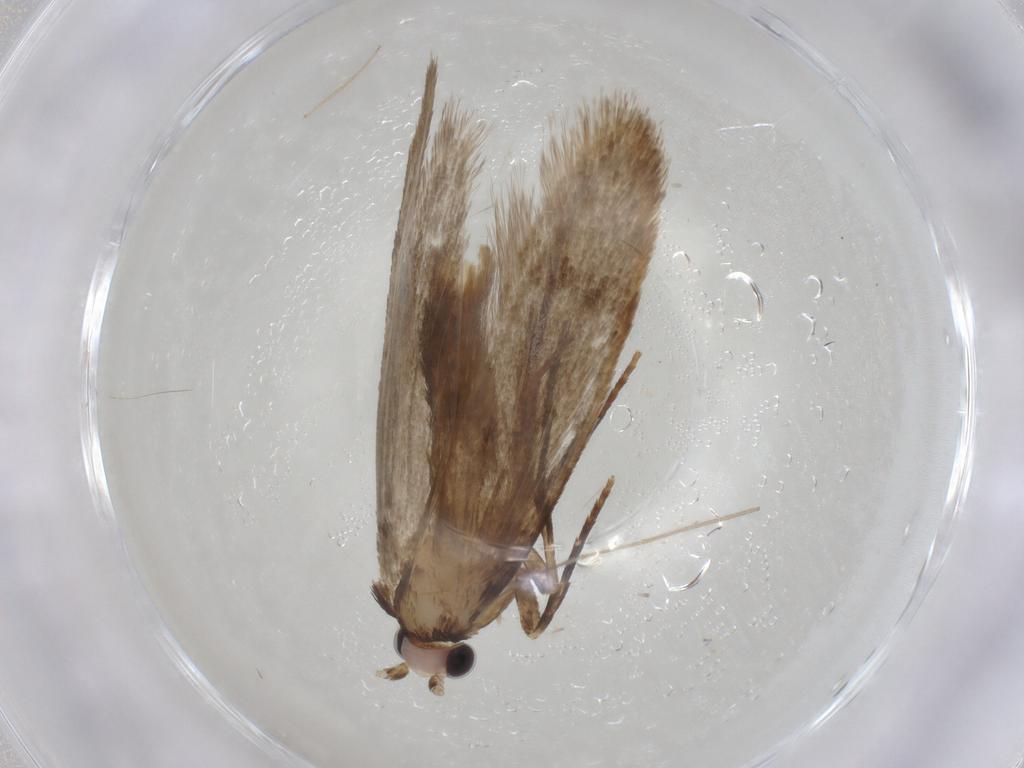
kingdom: Animalia
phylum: Arthropoda
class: Insecta
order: Lepidoptera
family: Tineidae
